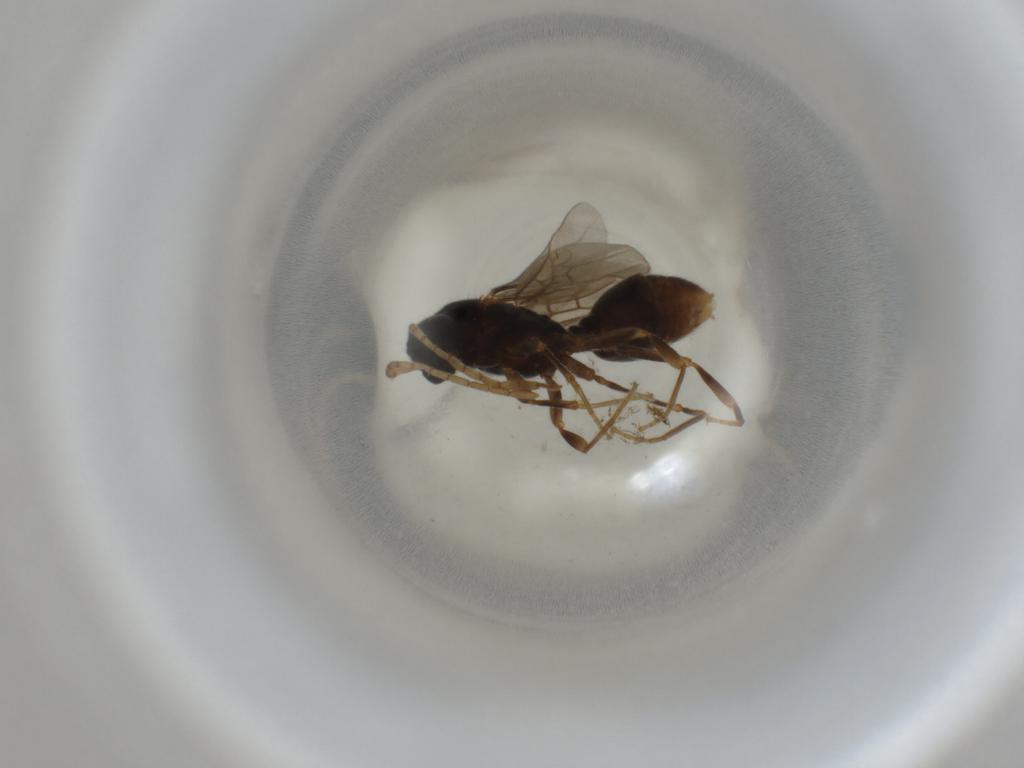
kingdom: Animalia
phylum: Arthropoda
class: Insecta
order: Hymenoptera
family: Formicidae
